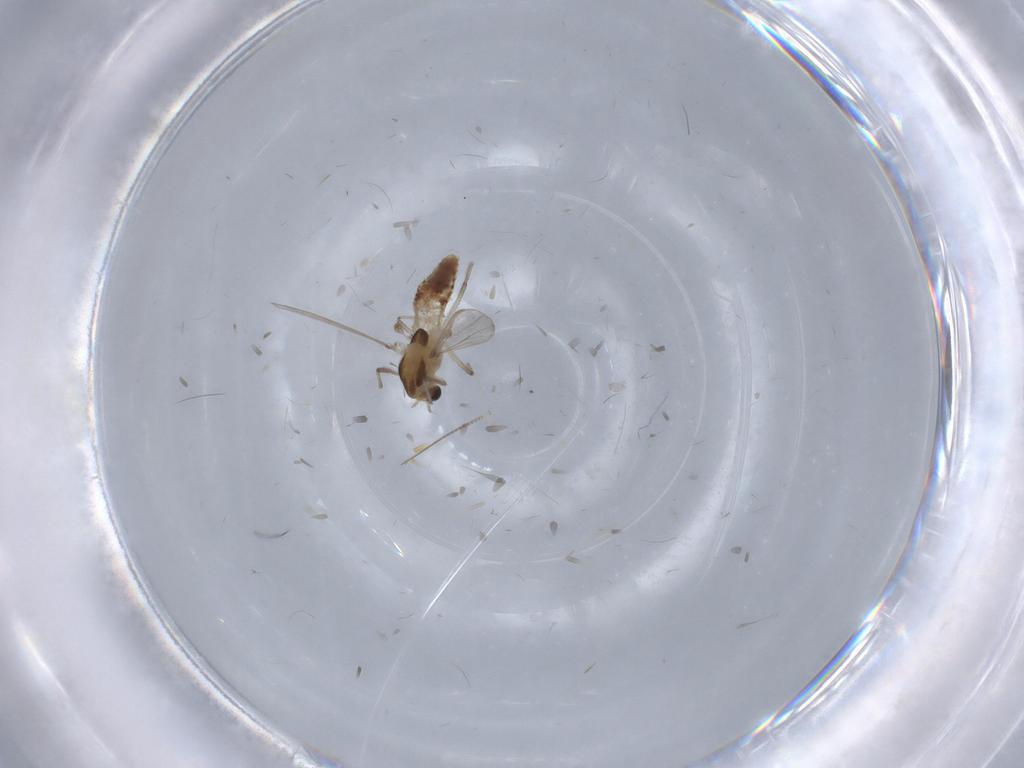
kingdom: Animalia
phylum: Arthropoda
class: Insecta
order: Diptera
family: Chironomidae
